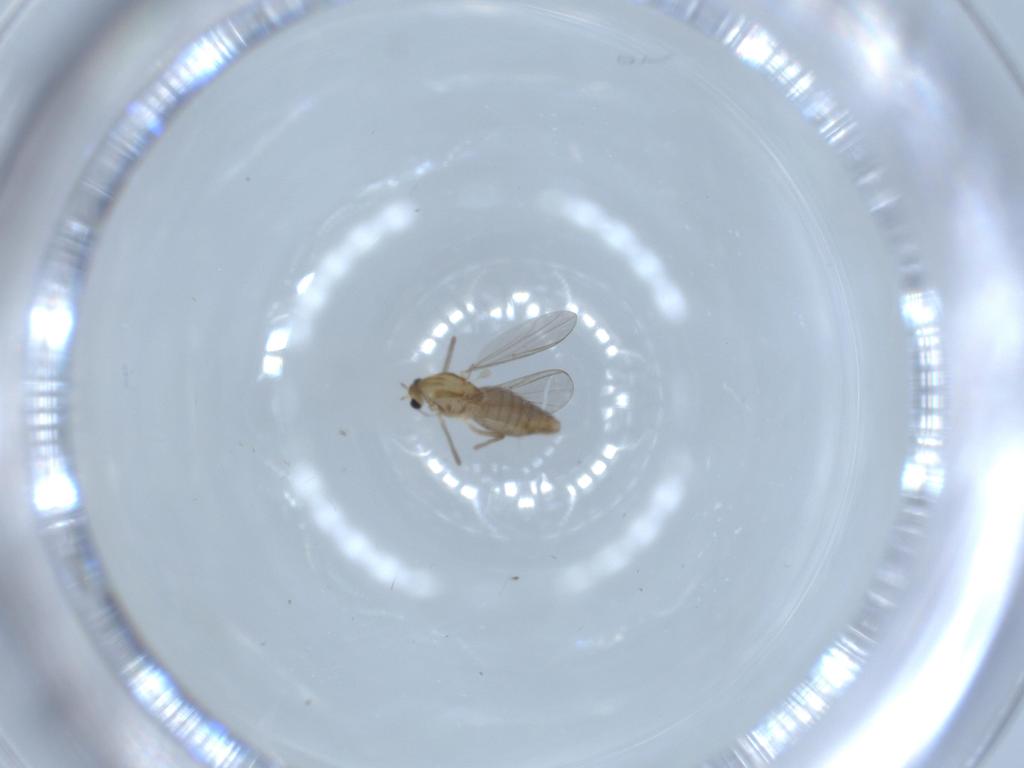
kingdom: Animalia
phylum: Arthropoda
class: Insecta
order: Diptera
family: Chironomidae
